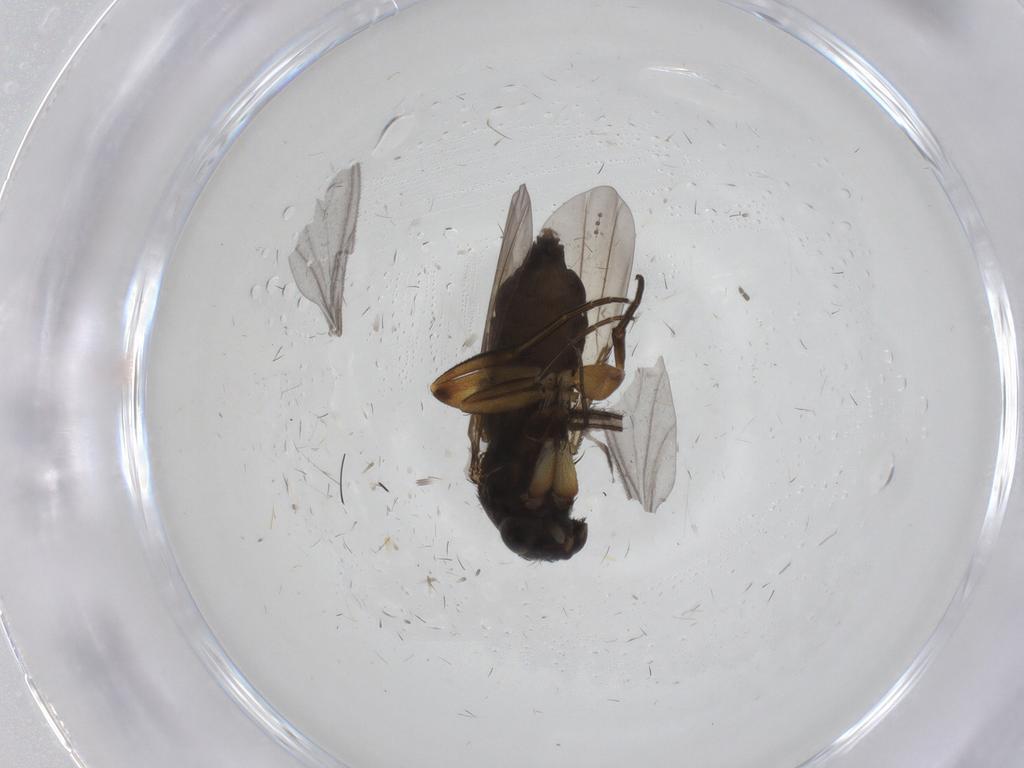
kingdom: Animalia
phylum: Arthropoda
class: Insecta
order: Diptera
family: Phoridae
